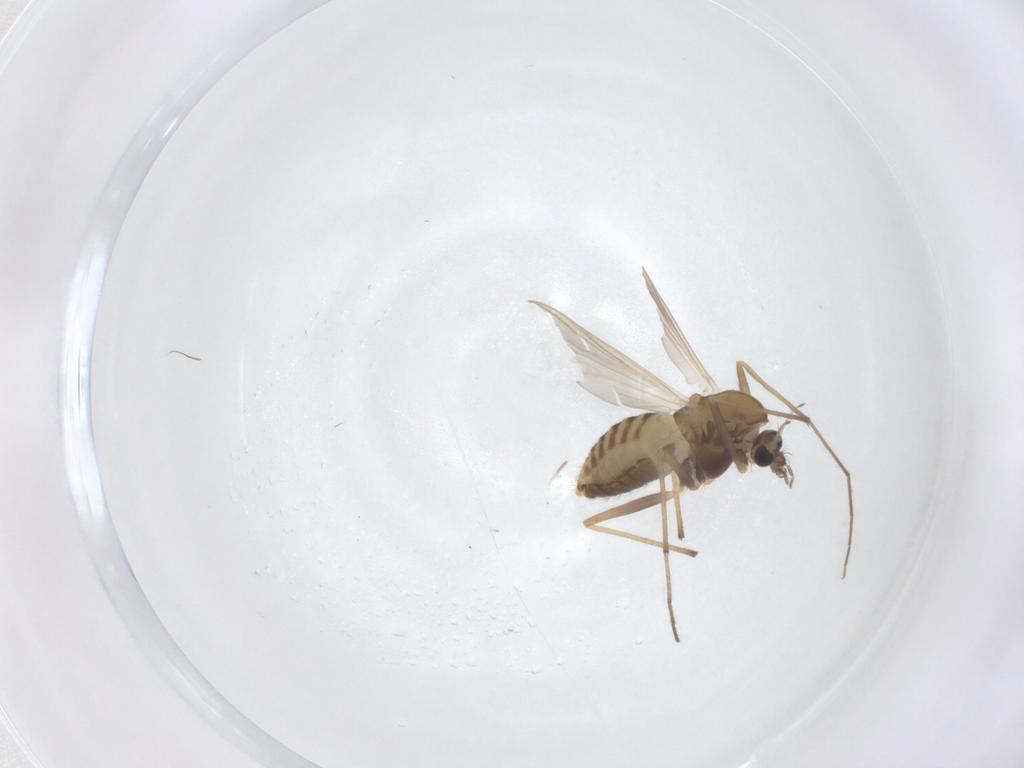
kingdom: Animalia
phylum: Arthropoda
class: Insecta
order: Diptera
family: Chironomidae
